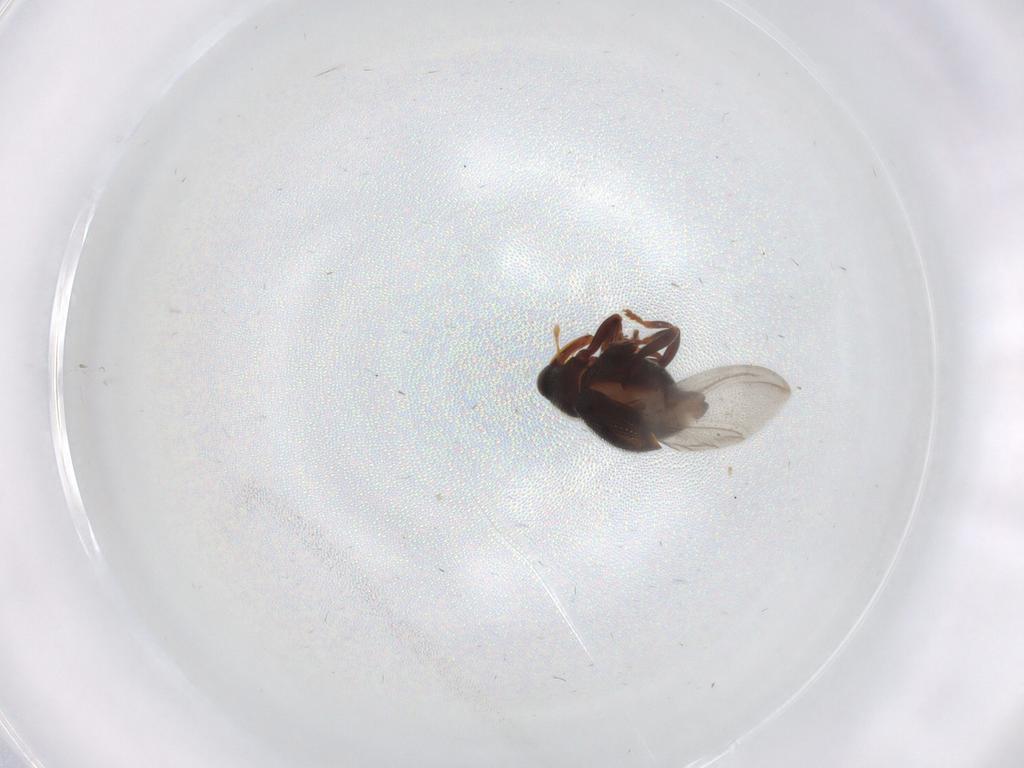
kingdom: Animalia
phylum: Arthropoda
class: Insecta
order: Coleoptera
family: Curculionidae
